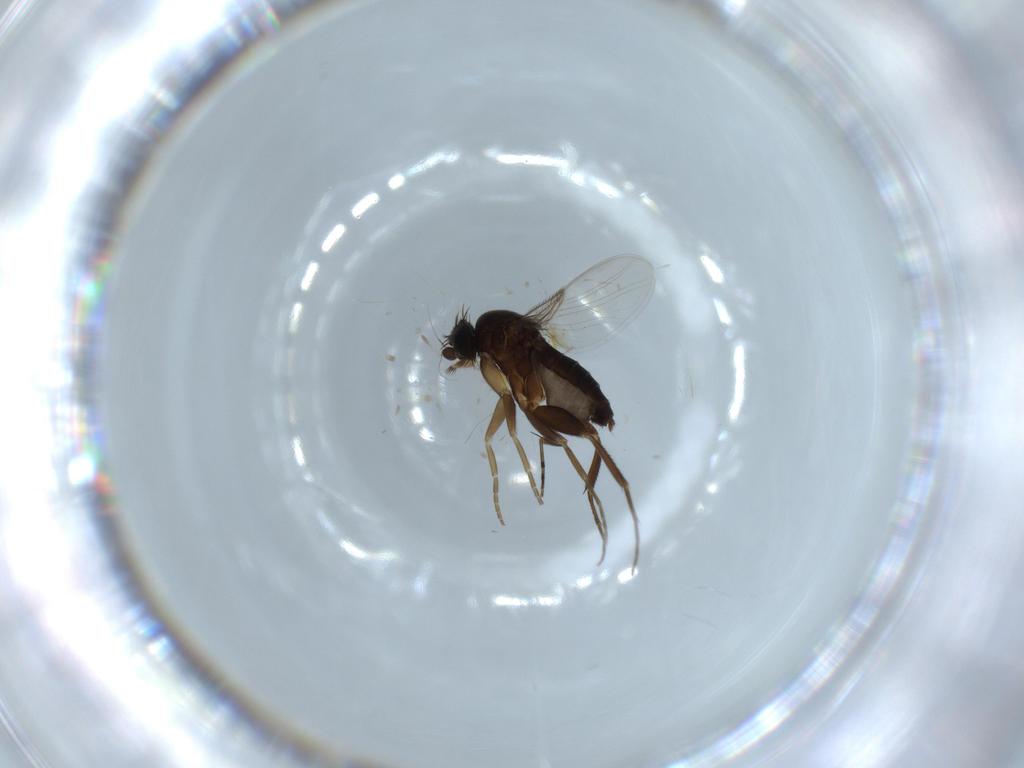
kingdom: Animalia
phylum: Arthropoda
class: Insecta
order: Diptera
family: Phoridae
